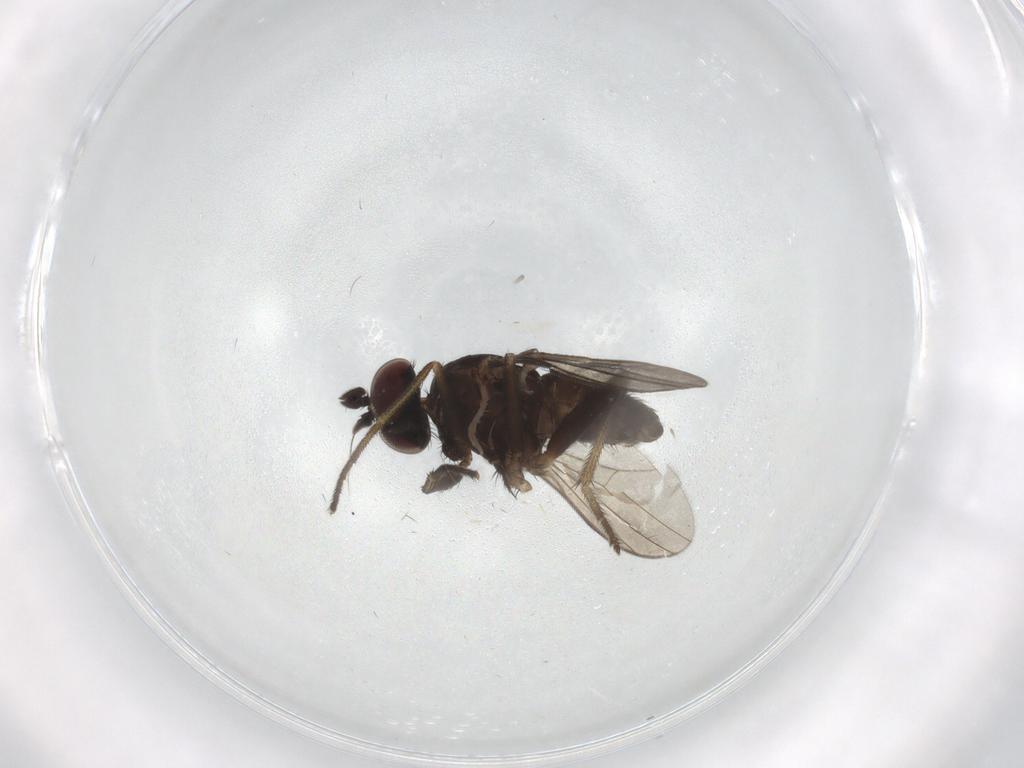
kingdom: Animalia
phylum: Arthropoda
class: Insecta
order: Diptera
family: Dolichopodidae
